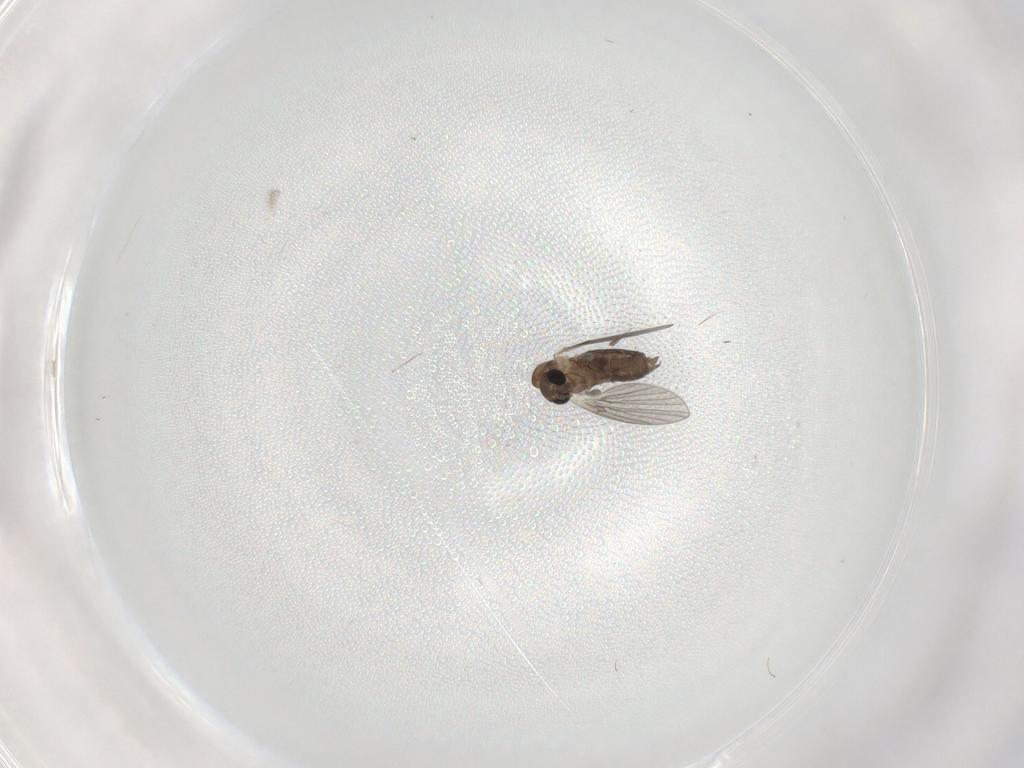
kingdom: Animalia
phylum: Arthropoda
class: Insecta
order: Diptera
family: Psychodidae
